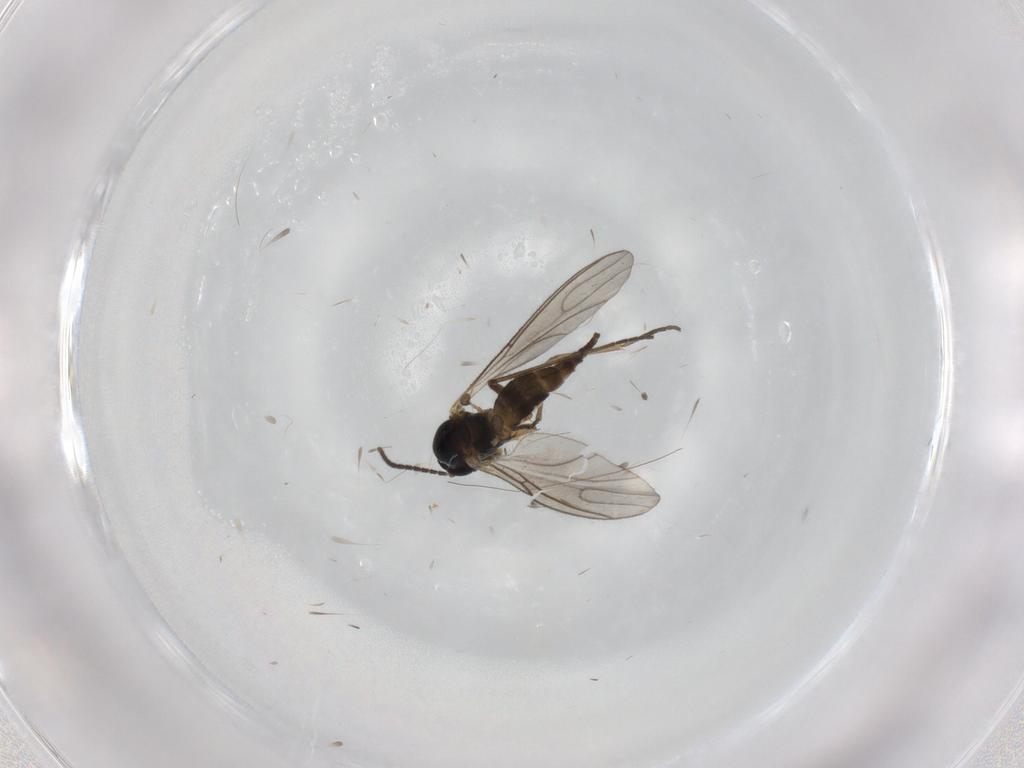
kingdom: Animalia
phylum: Arthropoda
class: Insecta
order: Diptera
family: Sciaridae
